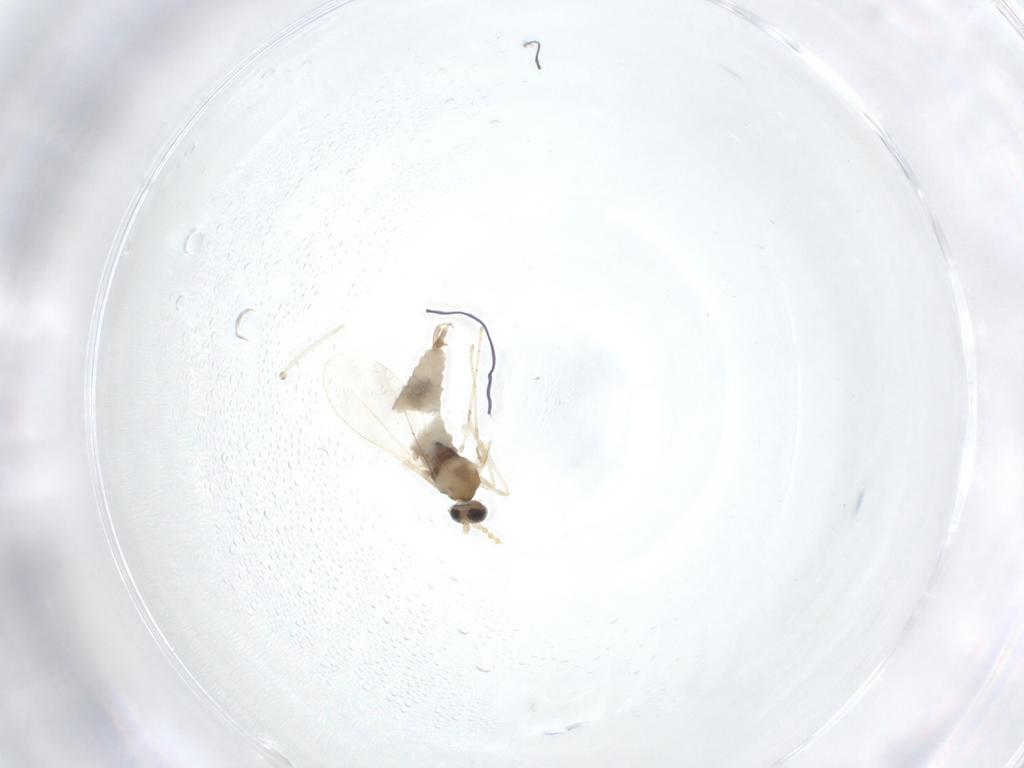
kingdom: Animalia
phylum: Arthropoda
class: Insecta
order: Diptera
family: Cecidomyiidae
